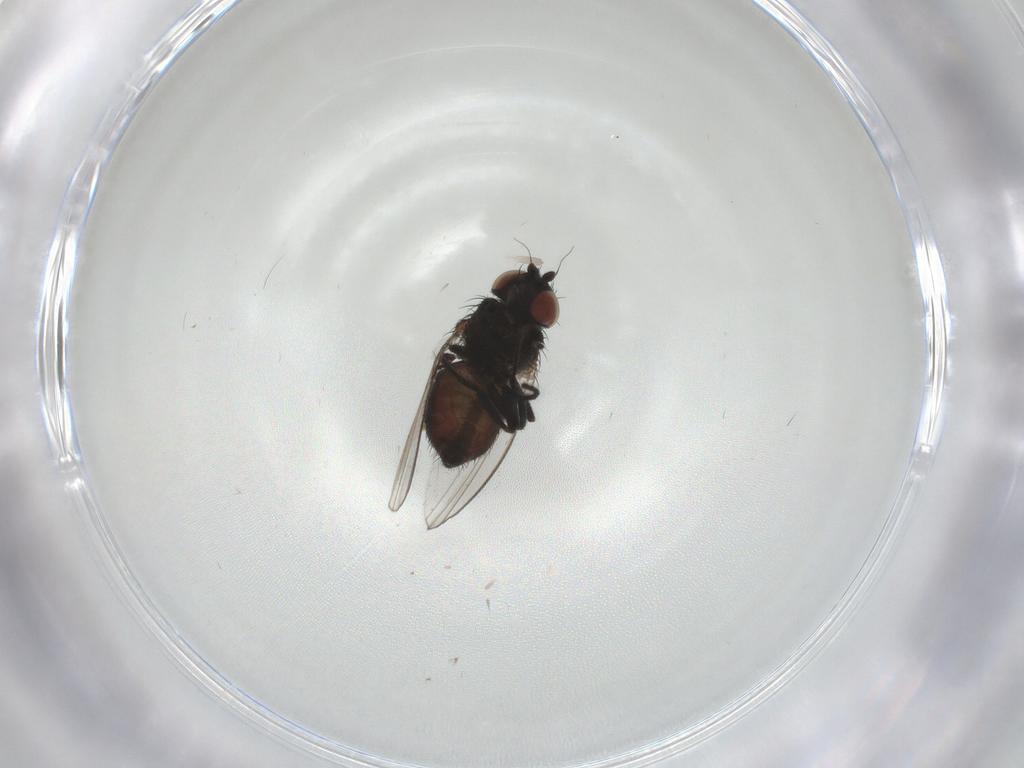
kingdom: Animalia
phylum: Arthropoda
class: Insecta
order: Diptera
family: Milichiidae
